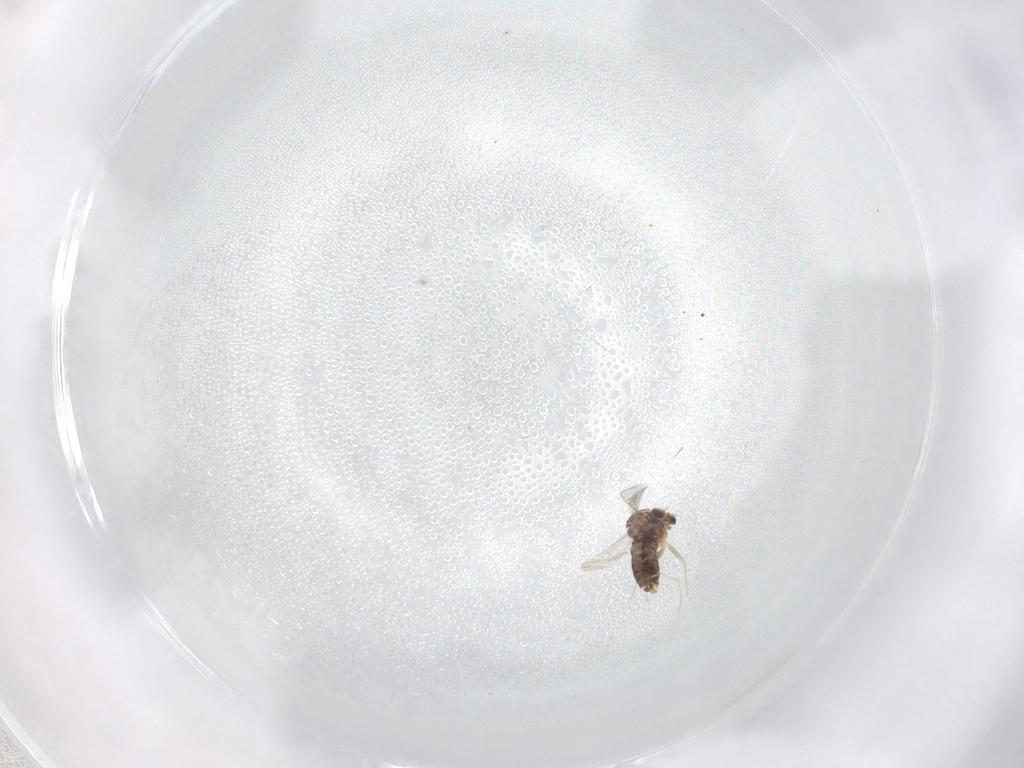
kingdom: Animalia
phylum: Arthropoda
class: Insecta
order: Diptera
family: Chironomidae
